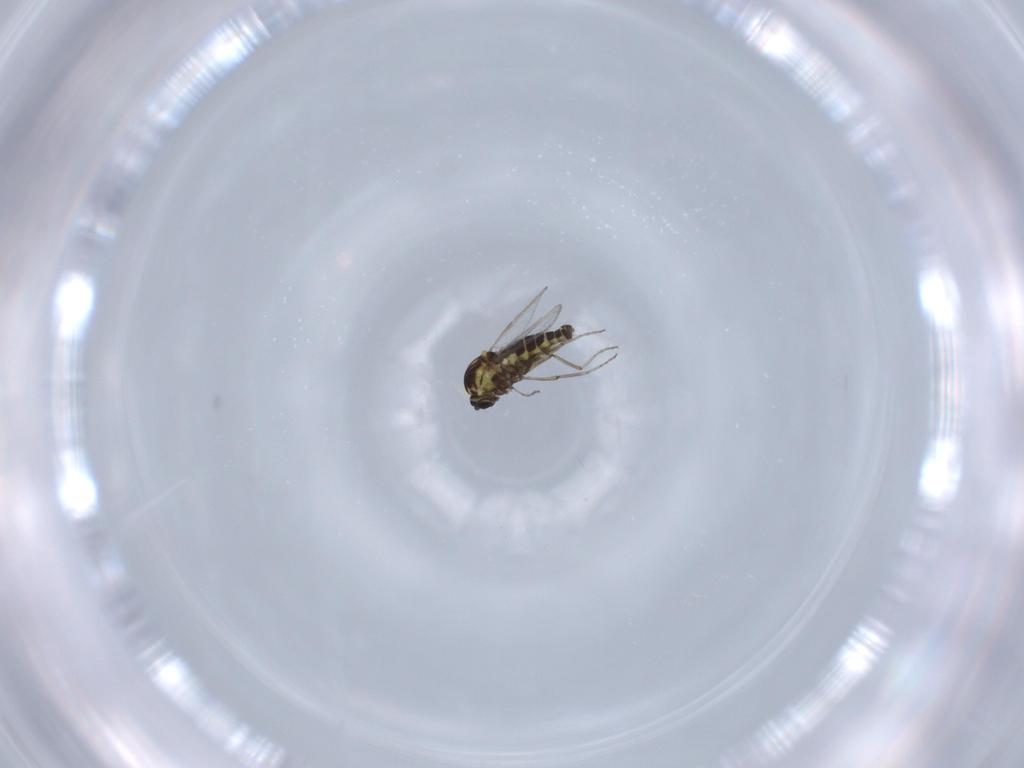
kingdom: Animalia
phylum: Arthropoda
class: Insecta
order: Diptera
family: Ceratopogonidae
